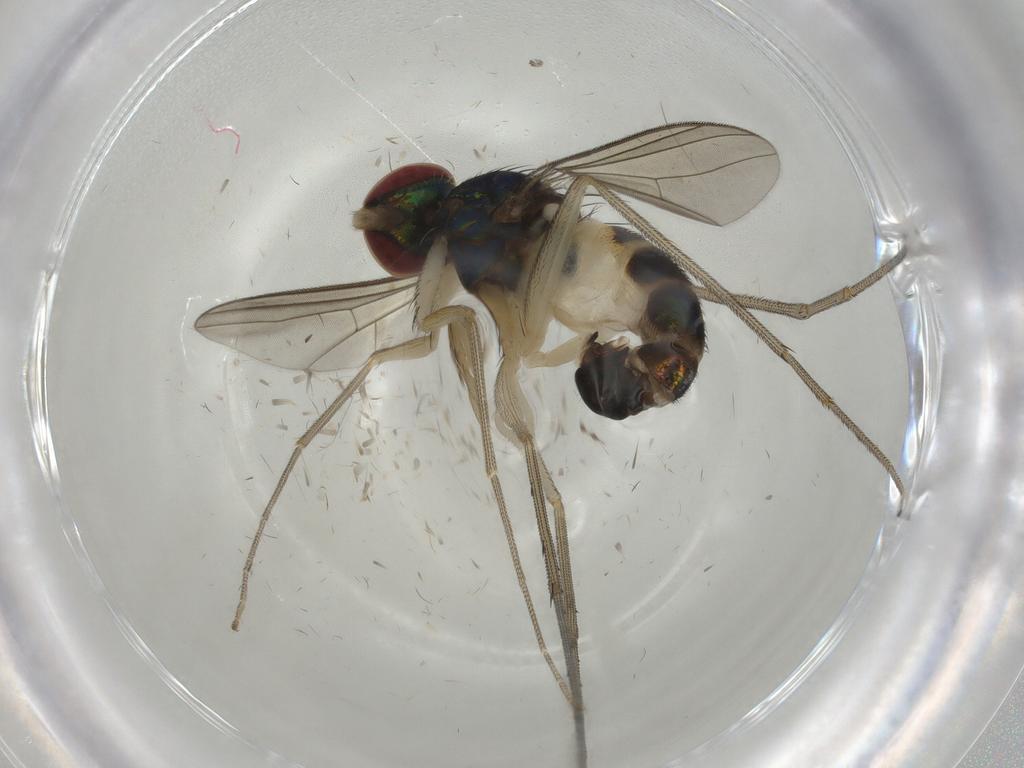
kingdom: Animalia
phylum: Arthropoda
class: Insecta
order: Diptera
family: Dolichopodidae
